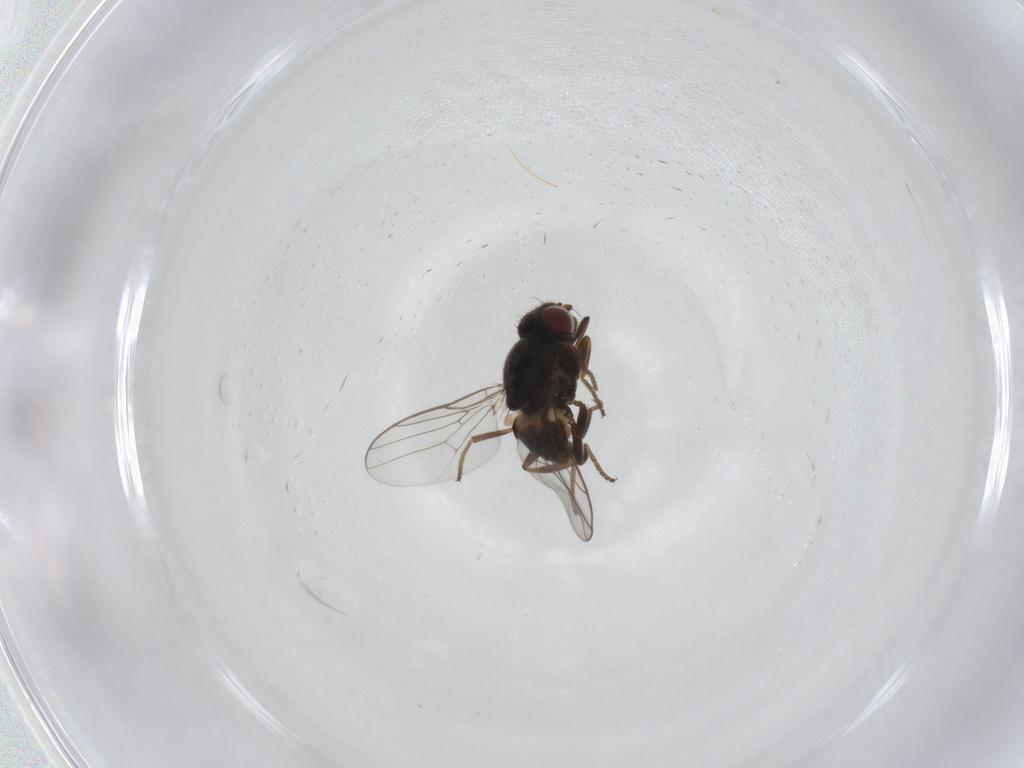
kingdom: Animalia
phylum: Arthropoda
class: Insecta
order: Diptera
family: Chloropidae
